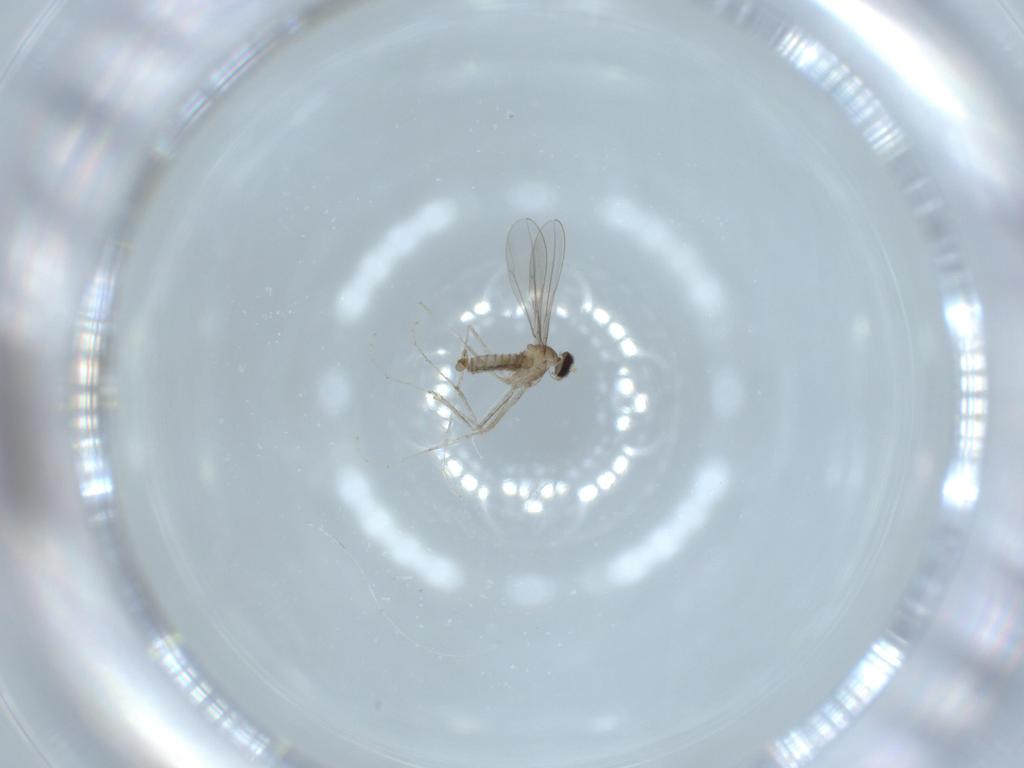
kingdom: Animalia
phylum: Arthropoda
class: Insecta
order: Diptera
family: Cecidomyiidae
